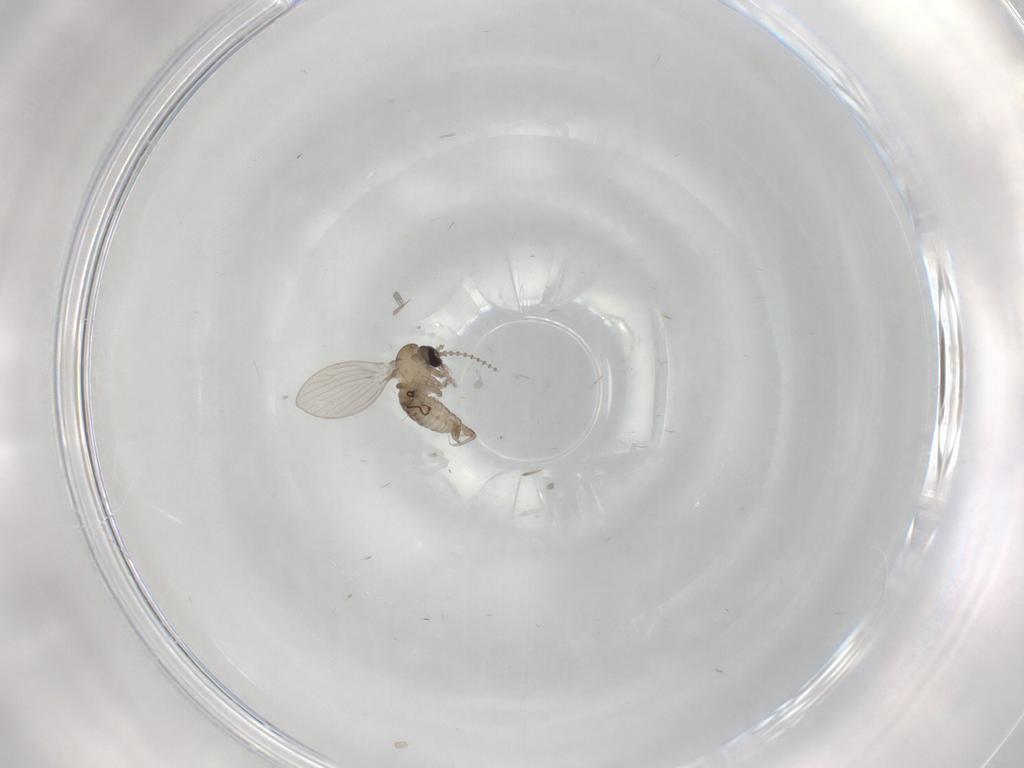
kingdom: Animalia
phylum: Arthropoda
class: Insecta
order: Diptera
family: Psychodidae
